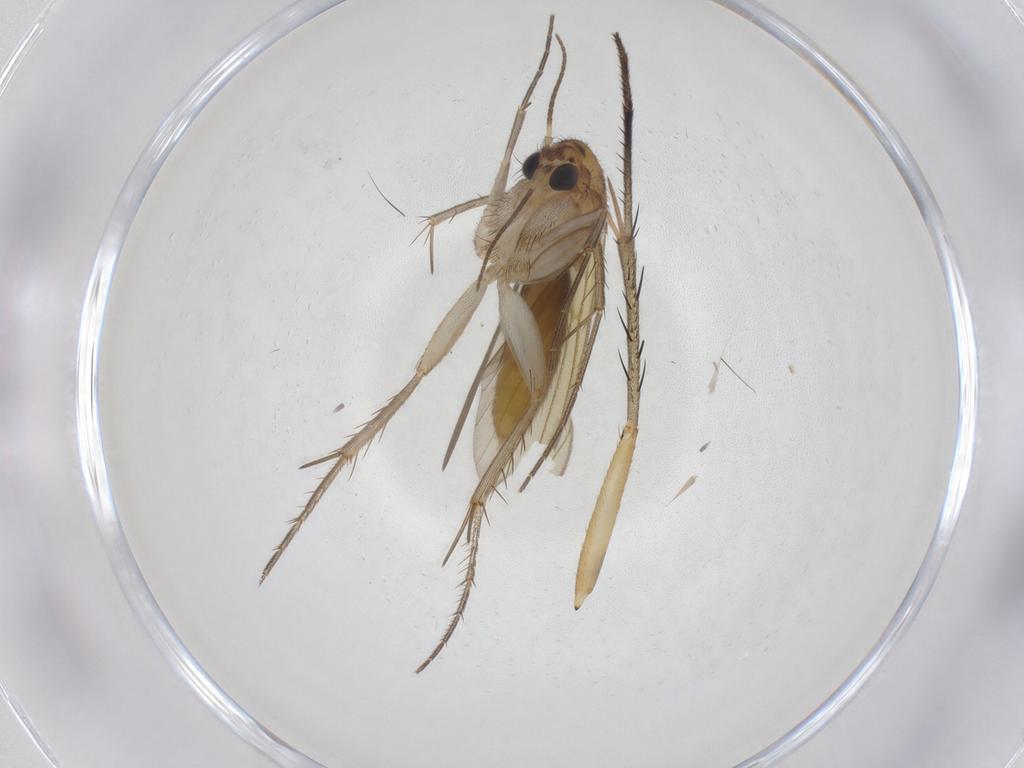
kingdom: Animalia
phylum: Arthropoda
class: Insecta
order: Diptera
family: Mycetophilidae
